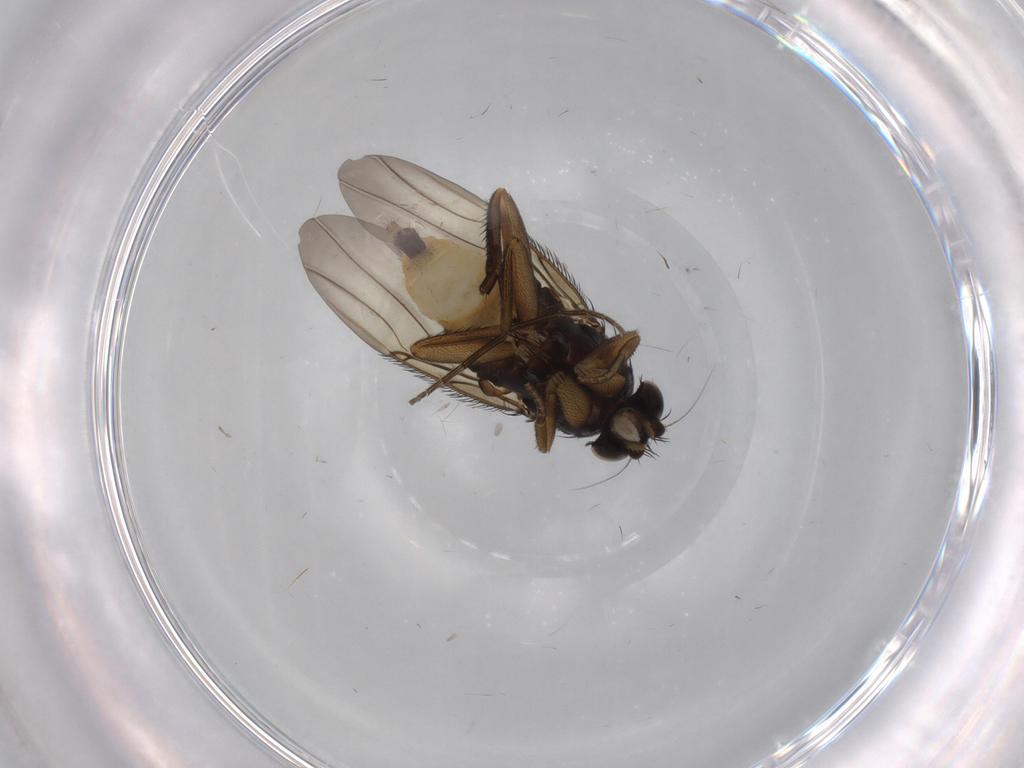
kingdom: Animalia
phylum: Arthropoda
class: Insecta
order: Diptera
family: Phoridae
